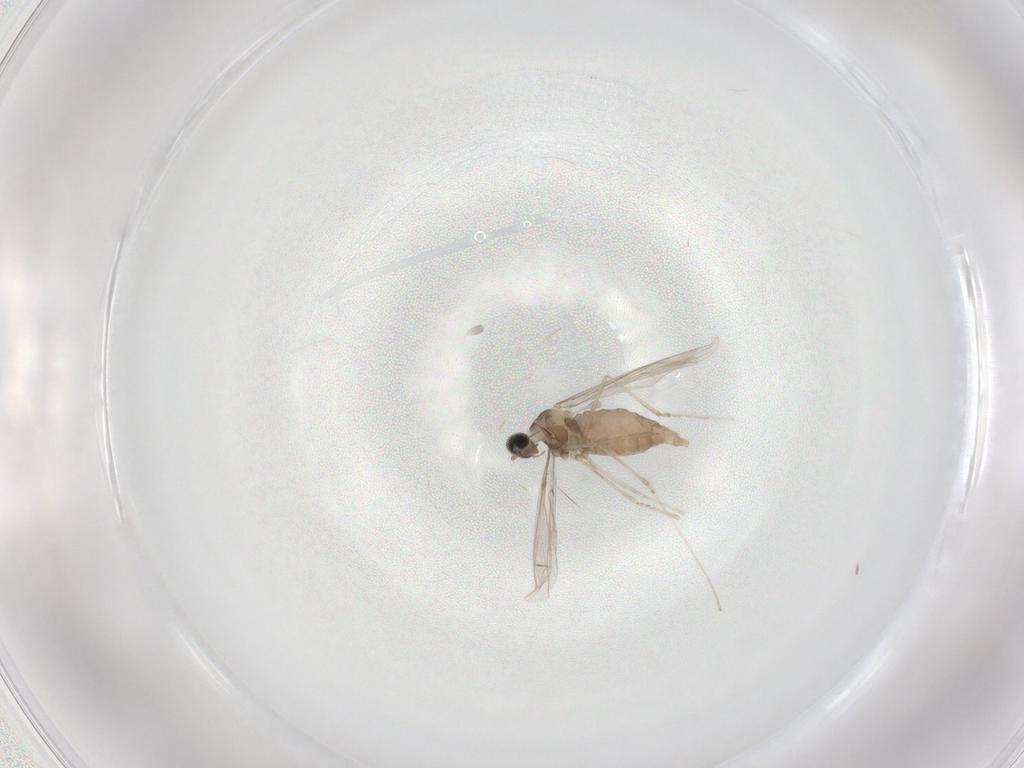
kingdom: Animalia
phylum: Arthropoda
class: Insecta
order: Diptera
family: Cecidomyiidae
